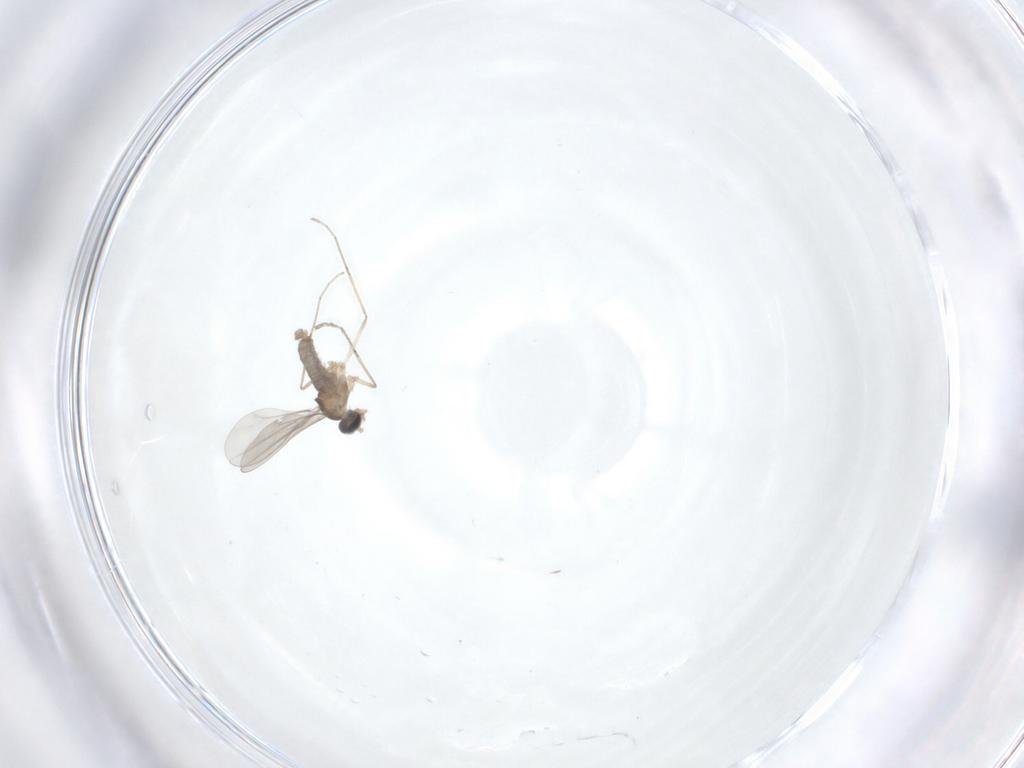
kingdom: Animalia
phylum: Arthropoda
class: Insecta
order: Diptera
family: Cecidomyiidae
